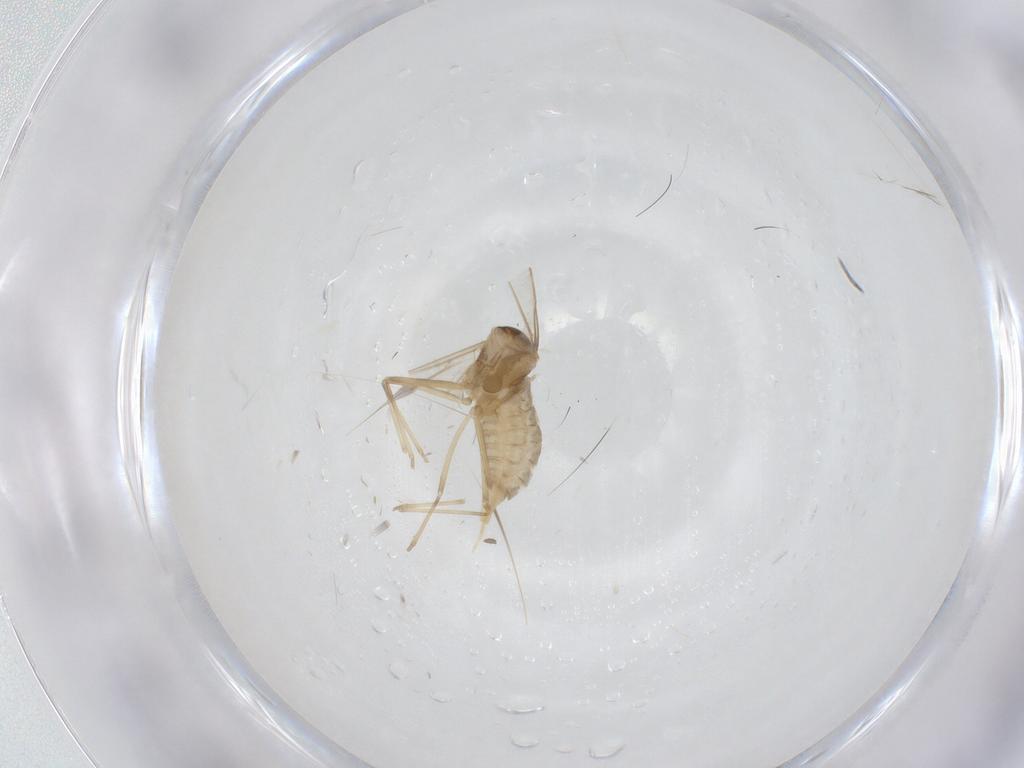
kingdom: Animalia
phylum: Arthropoda
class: Insecta
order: Diptera
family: Cecidomyiidae
